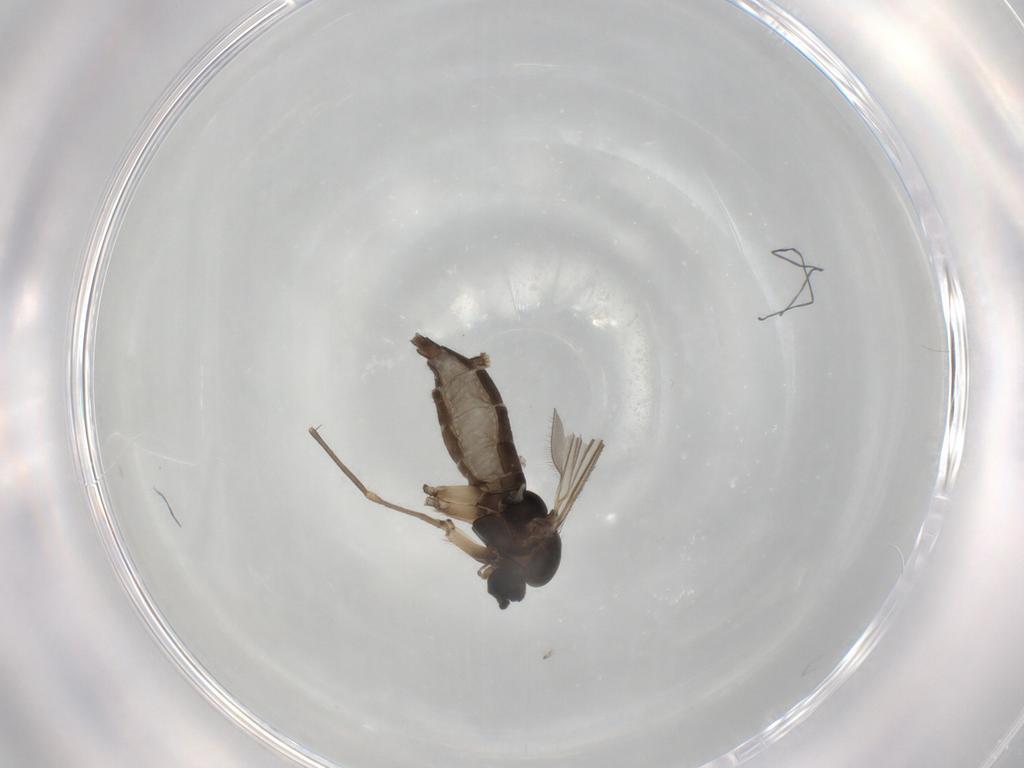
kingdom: Animalia
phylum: Arthropoda
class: Insecta
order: Diptera
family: Sciaridae
